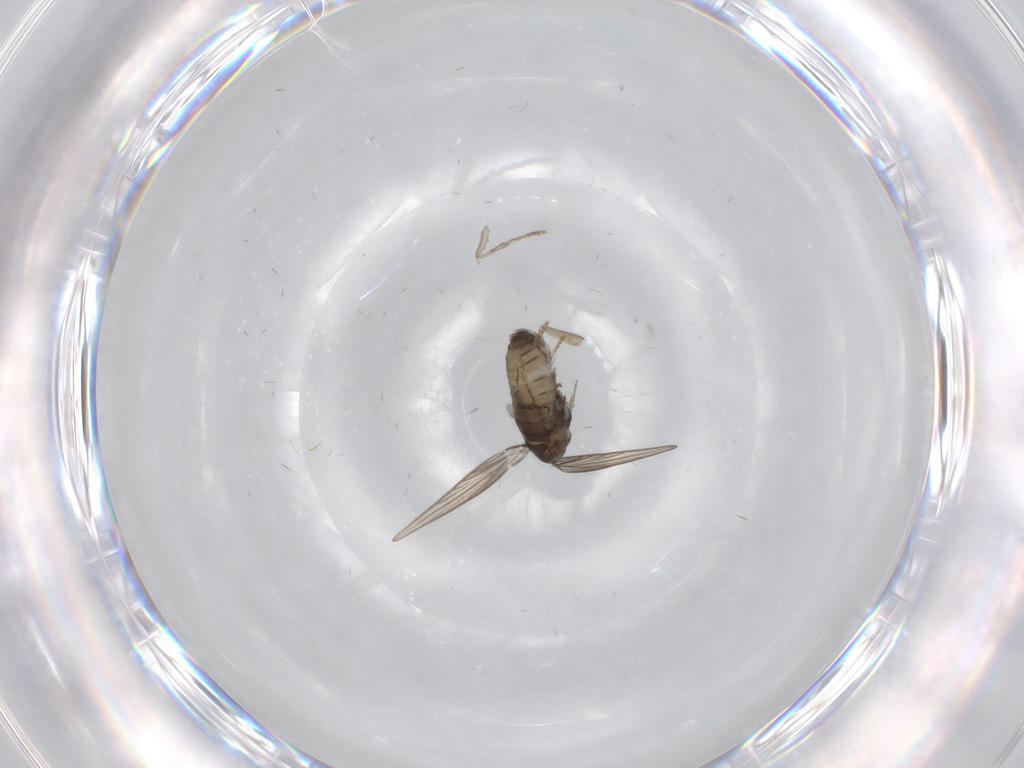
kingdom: Animalia
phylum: Arthropoda
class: Insecta
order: Diptera
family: Psychodidae
